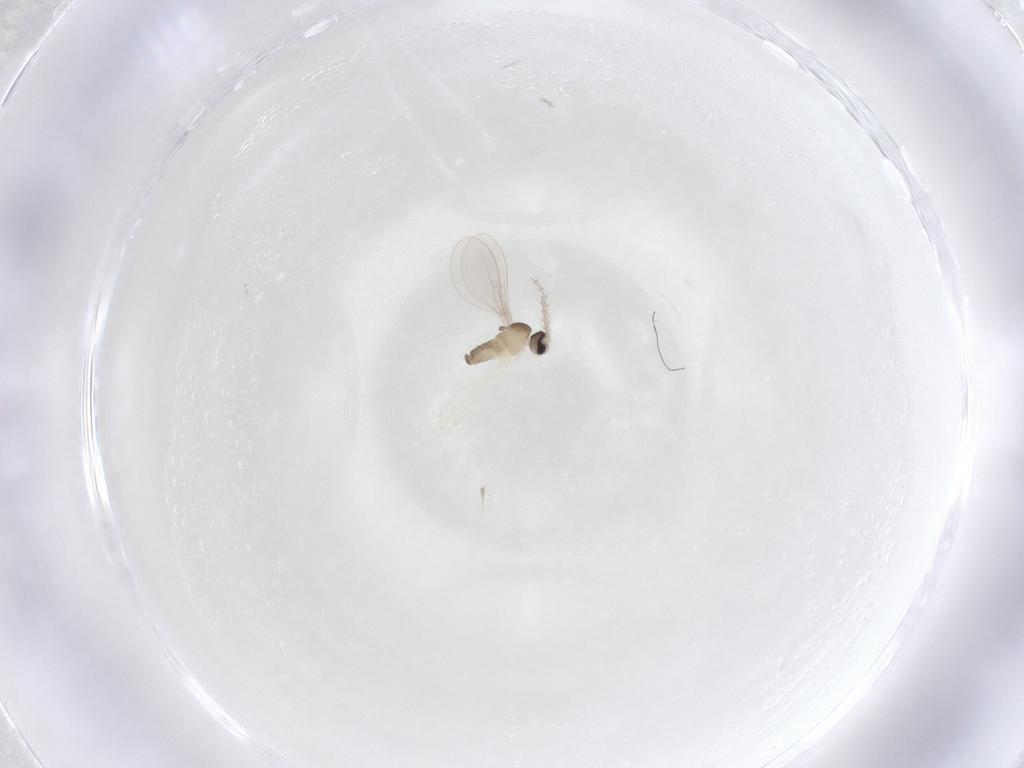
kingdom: Animalia
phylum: Arthropoda
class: Insecta
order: Diptera
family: Cecidomyiidae
